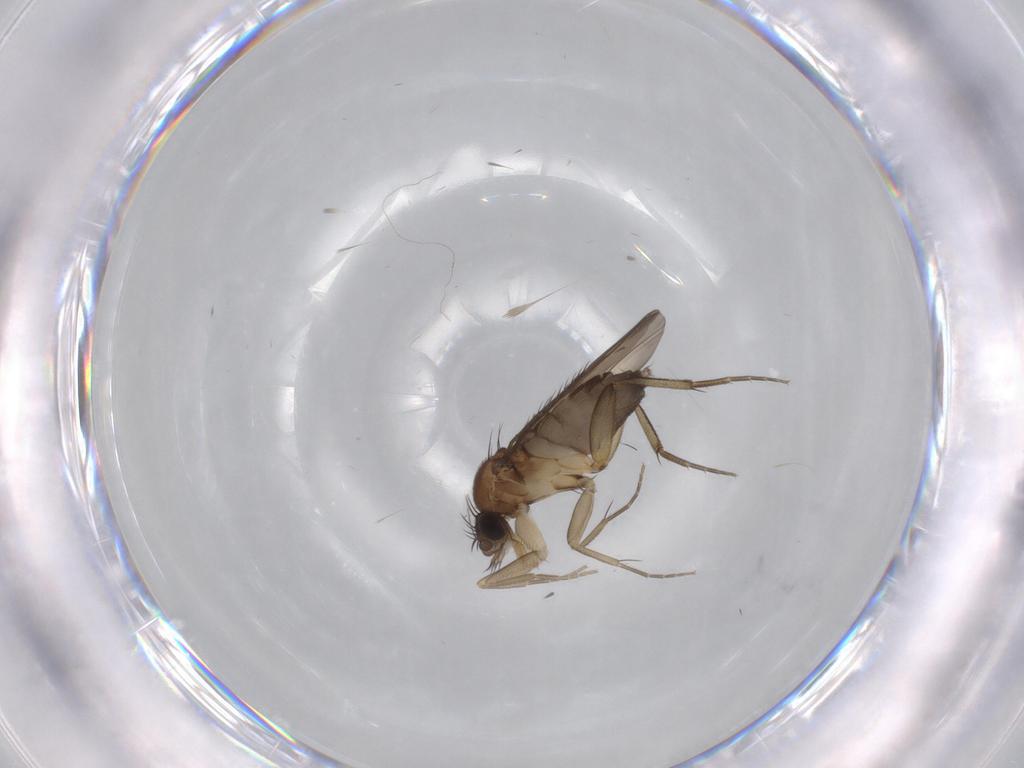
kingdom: Animalia
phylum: Arthropoda
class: Insecta
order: Diptera
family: Phoridae
